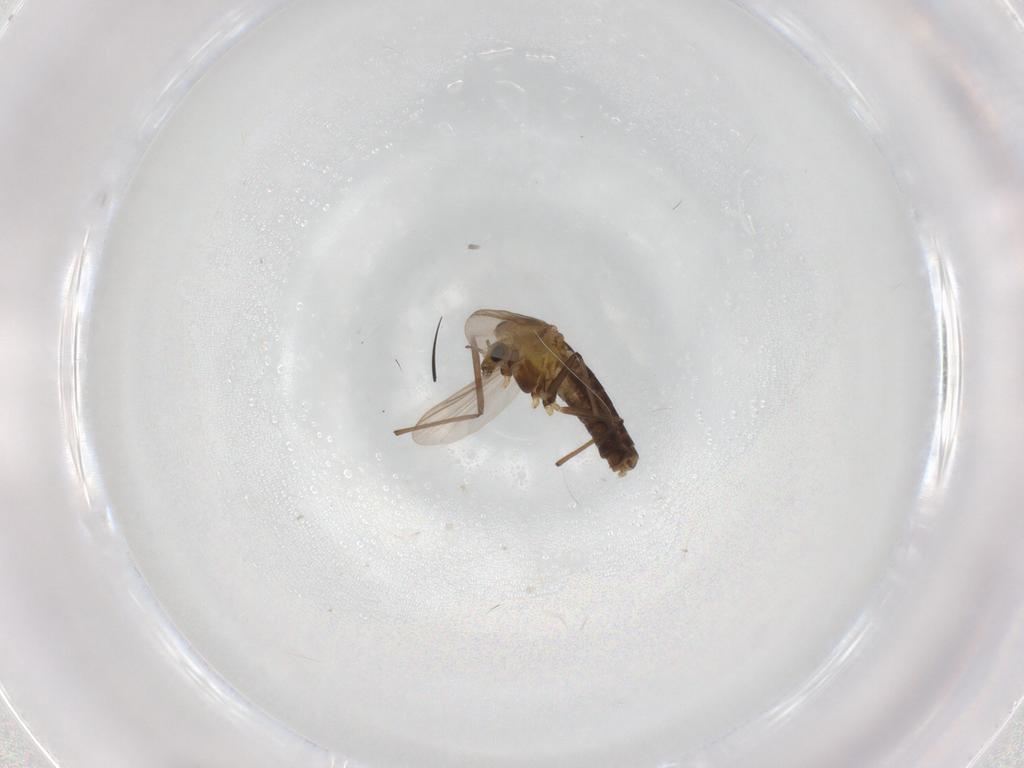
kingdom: Animalia
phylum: Arthropoda
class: Insecta
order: Diptera
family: Chironomidae
